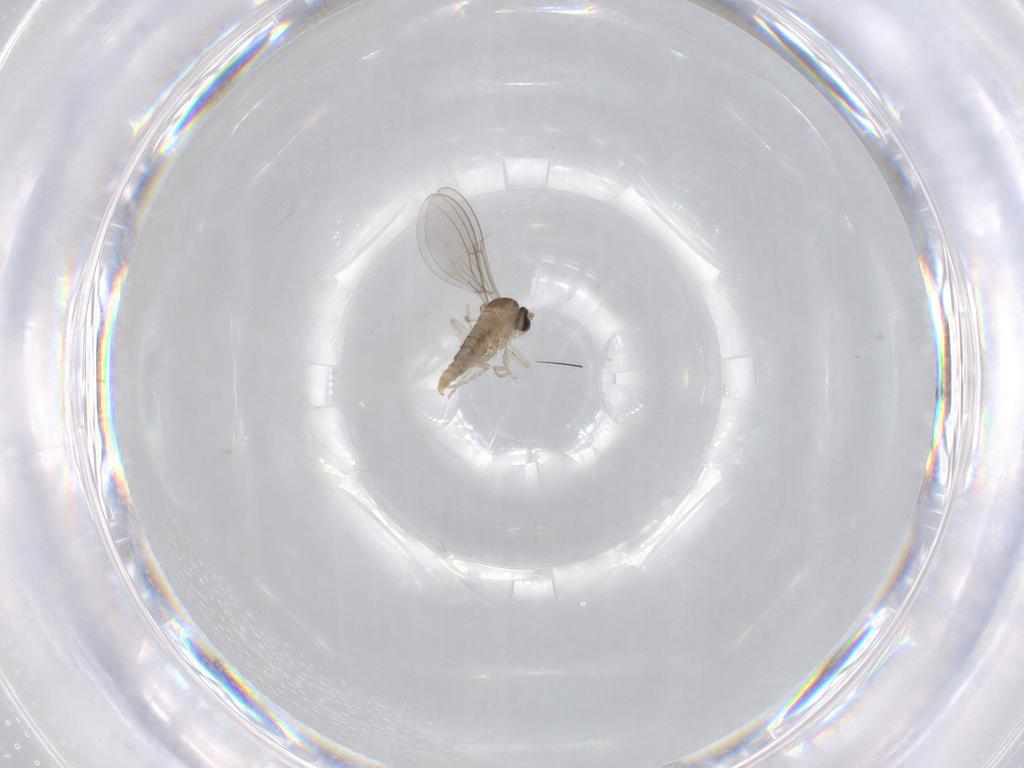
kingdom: Animalia
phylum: Arthropoda
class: Insecta
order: Diptera
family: Cecidomyiidae
